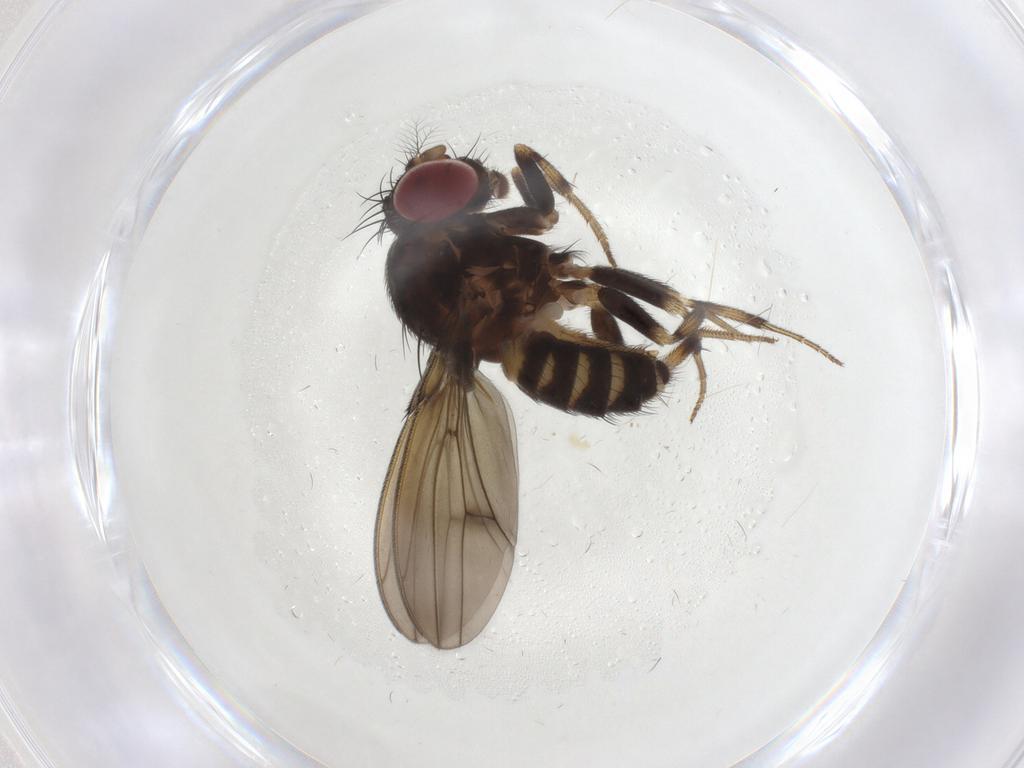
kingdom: Animalia
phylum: Arthropoda
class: Insecta
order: Diptera
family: Drosophilidae
